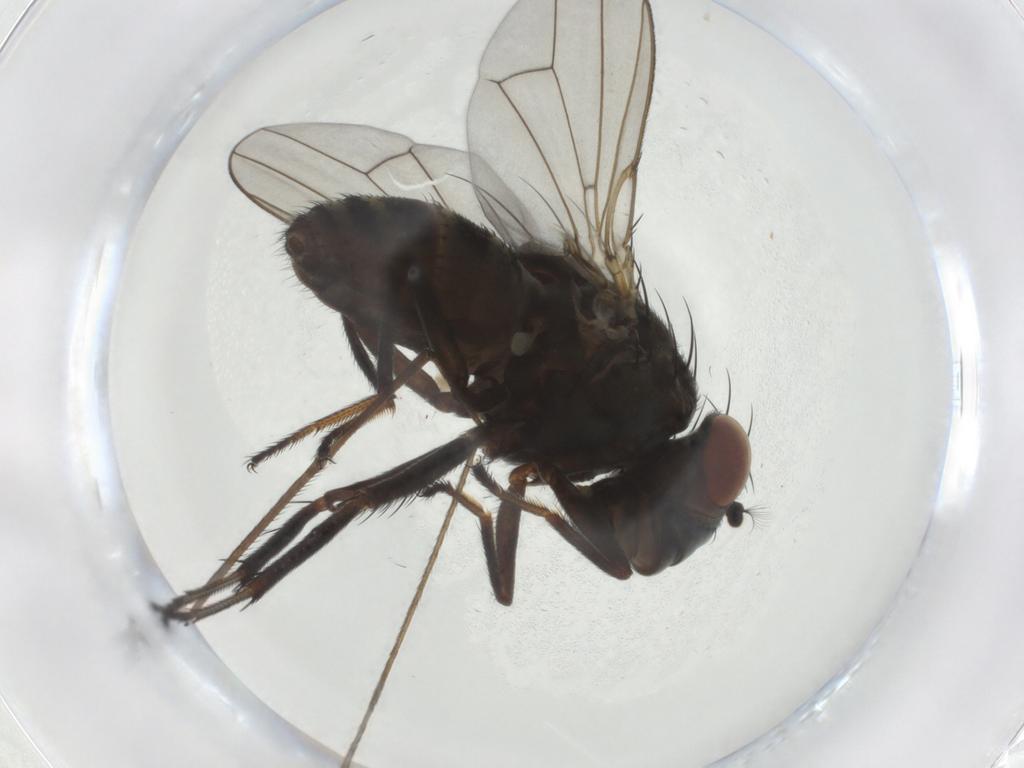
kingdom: Animalia
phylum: Arthropoda
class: Insecta
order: Diptera
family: Ephydridae
